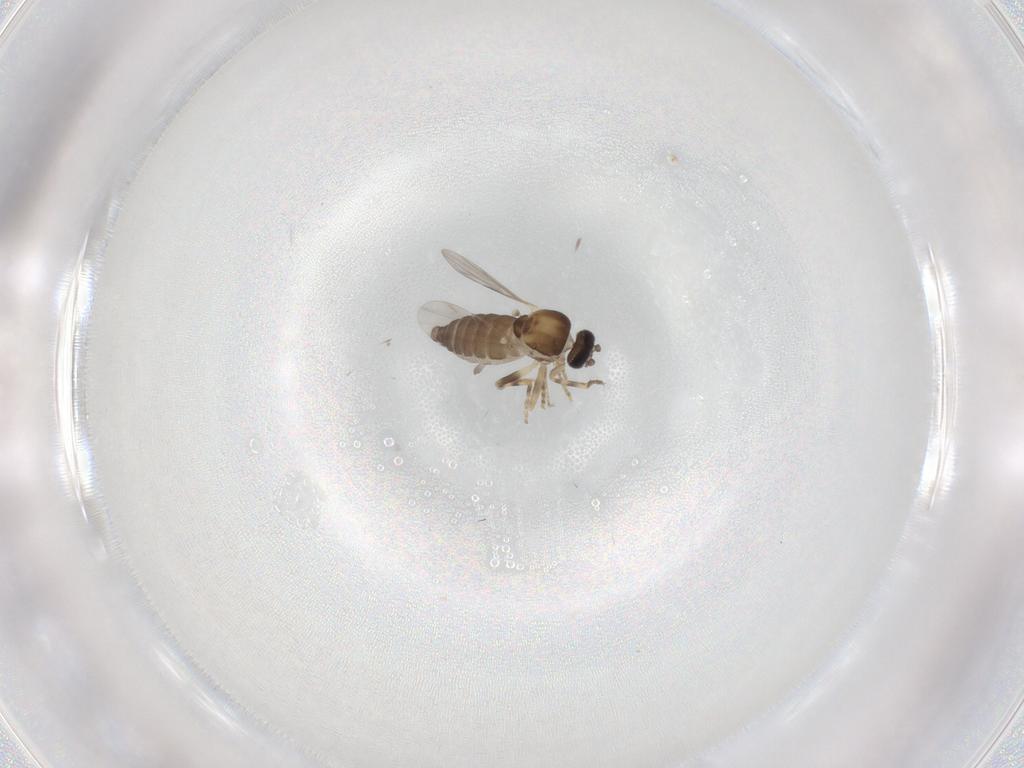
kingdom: Animalia
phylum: Arthropoda
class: Insecta
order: Diptera
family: Ceratopogonidae
